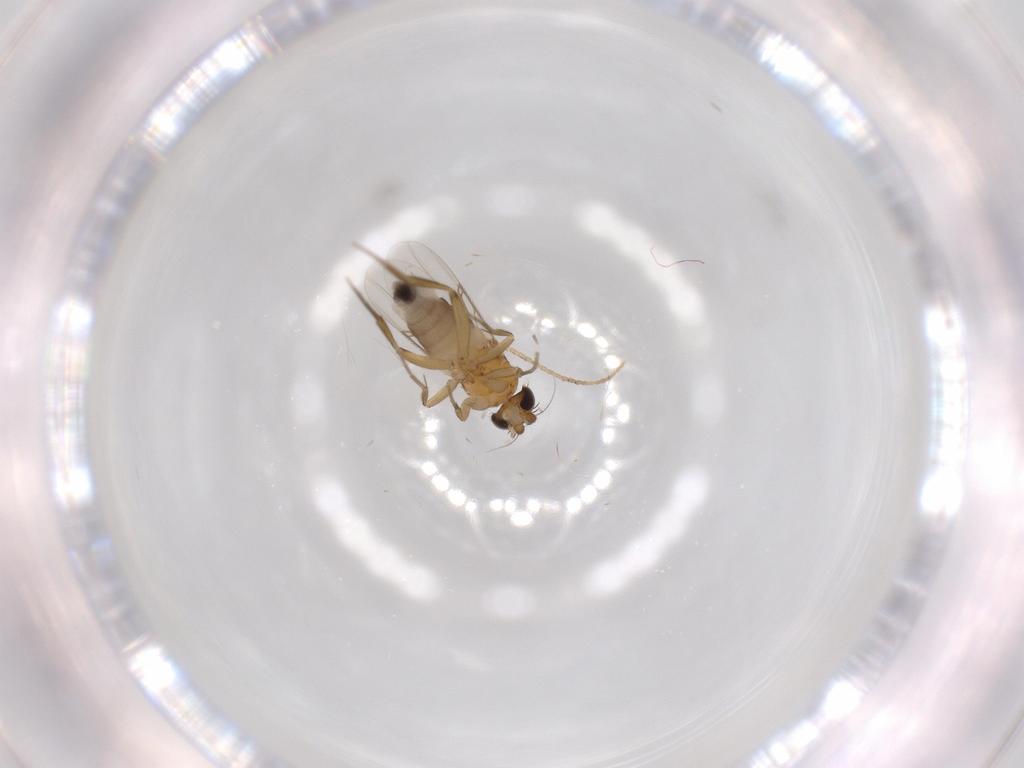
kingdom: Animalia
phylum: Arthropoda
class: Insecta
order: Diptera
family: Phoridae
